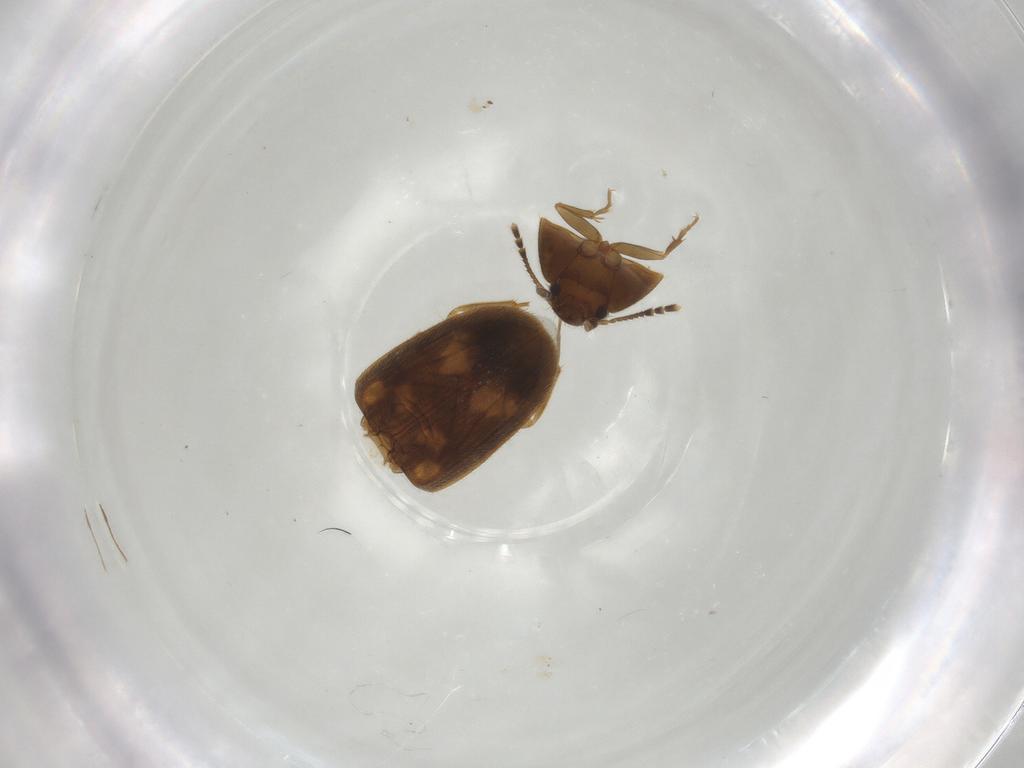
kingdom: Animalia
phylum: Arthropoda
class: Insecta
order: Coleoptera
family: Mycetophagidae
